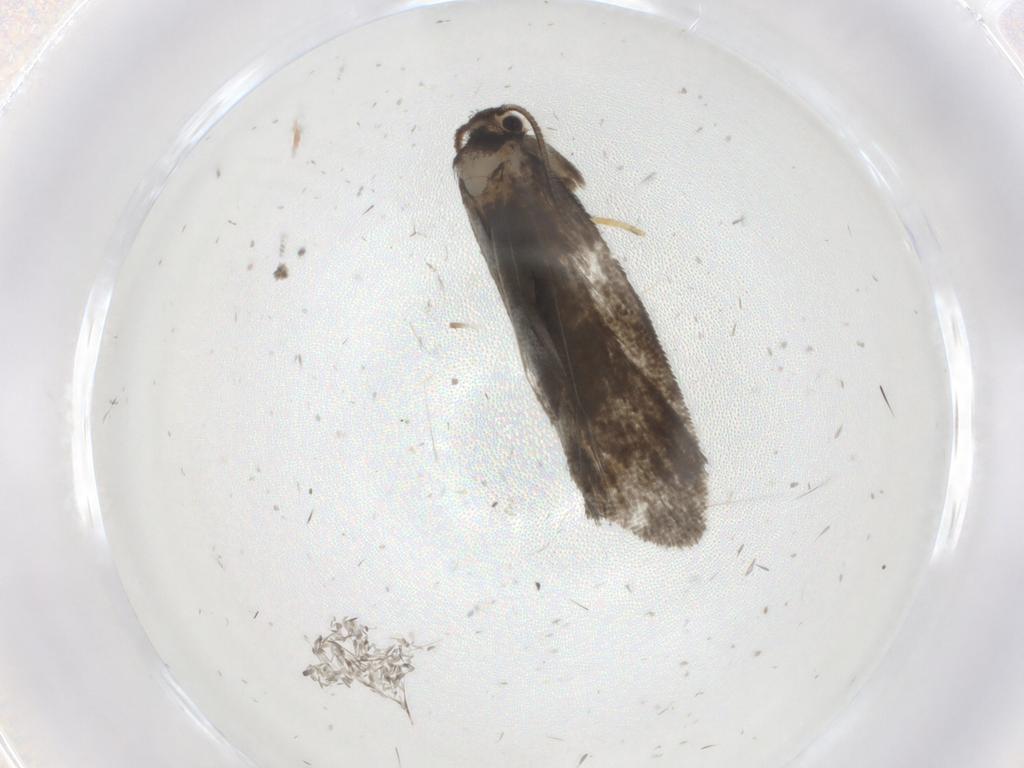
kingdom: Animalia
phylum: Arthropoda
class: Insecta
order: Lepidoptera
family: Psychidae
